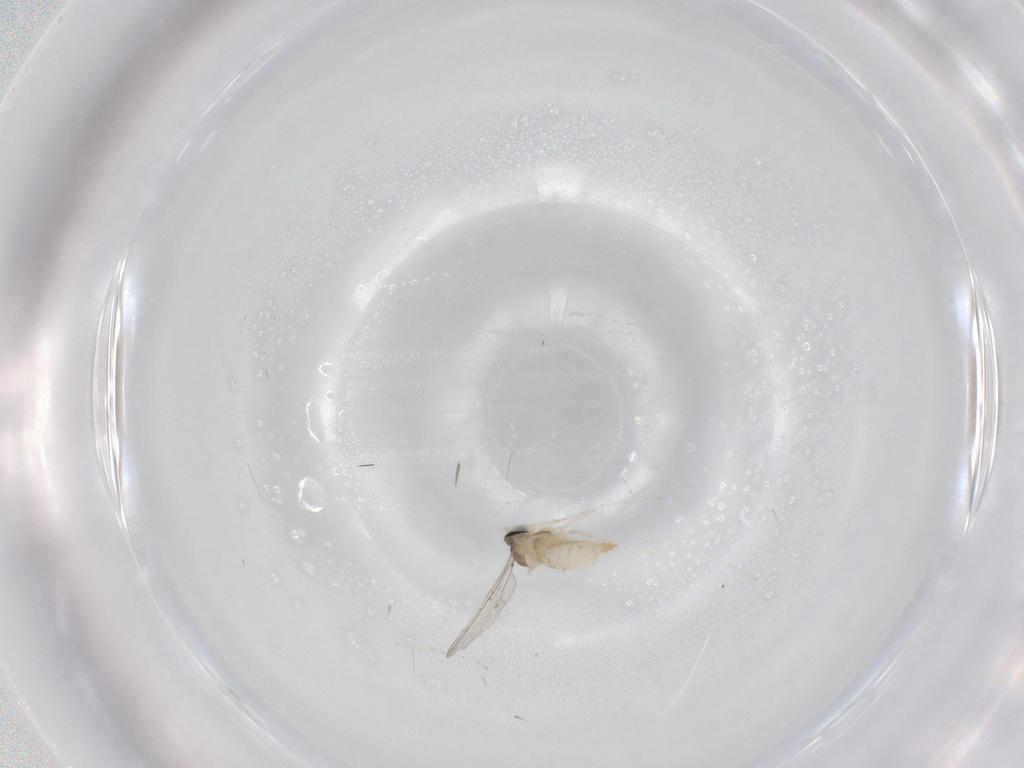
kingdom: Animalia
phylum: Arthropoda
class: Insecta
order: Diptera
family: Cecidomyiidae
